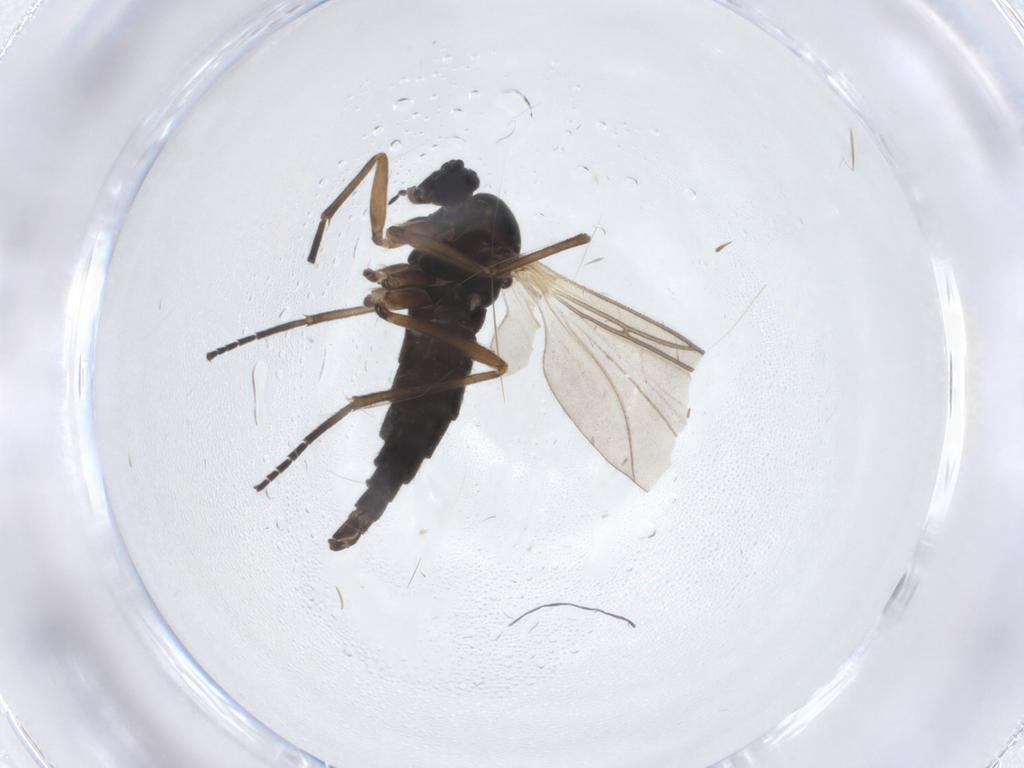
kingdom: Animalia
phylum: Arthropoda
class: Insecta
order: Diptera
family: Sciaridae
